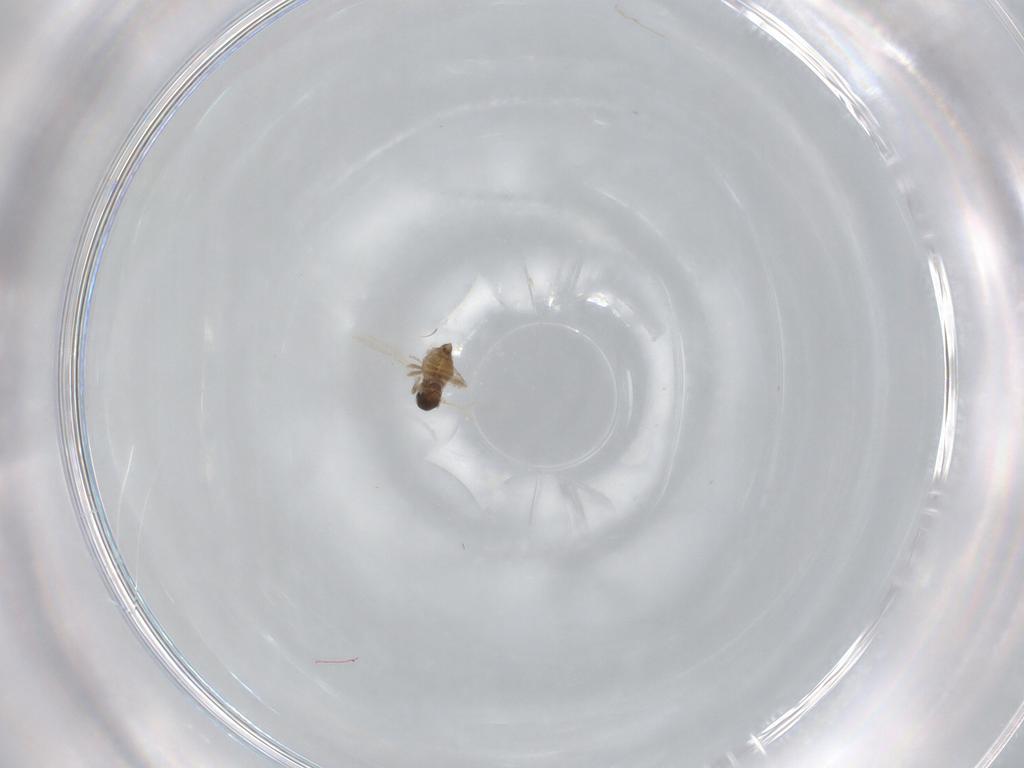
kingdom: Animalia
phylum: Arthropoda
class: Insecta
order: Diptera
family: Cecidomyiidae
